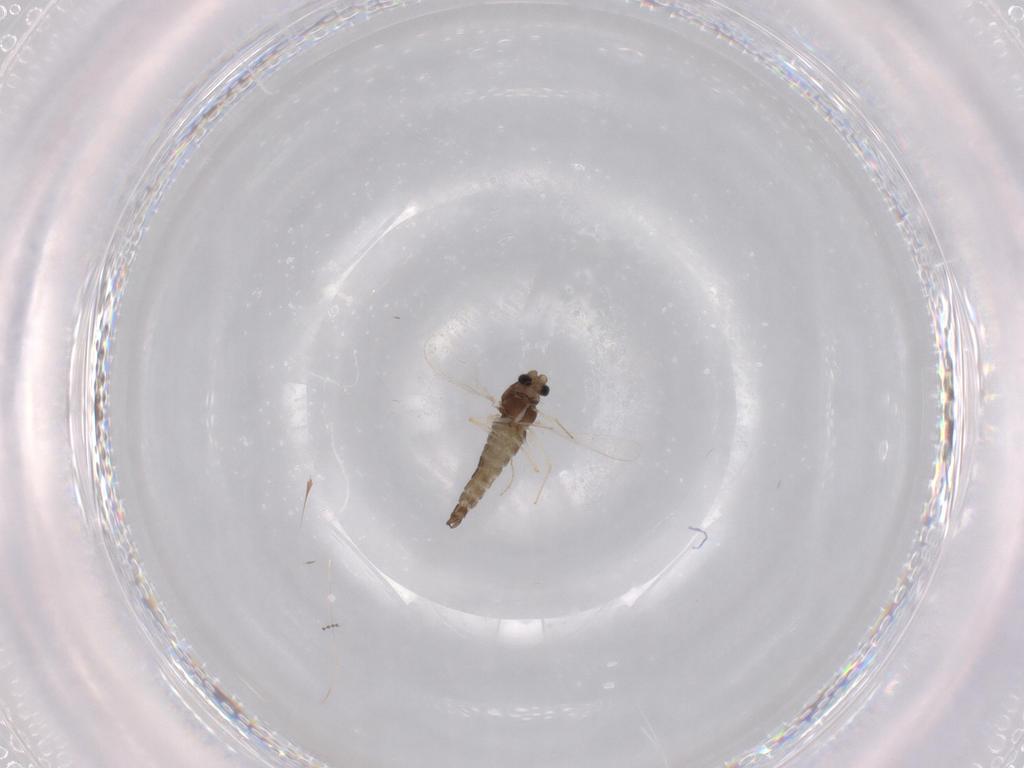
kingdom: Animalia
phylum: Arthropoda
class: Insecta
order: Diptera
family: Chironomidae
